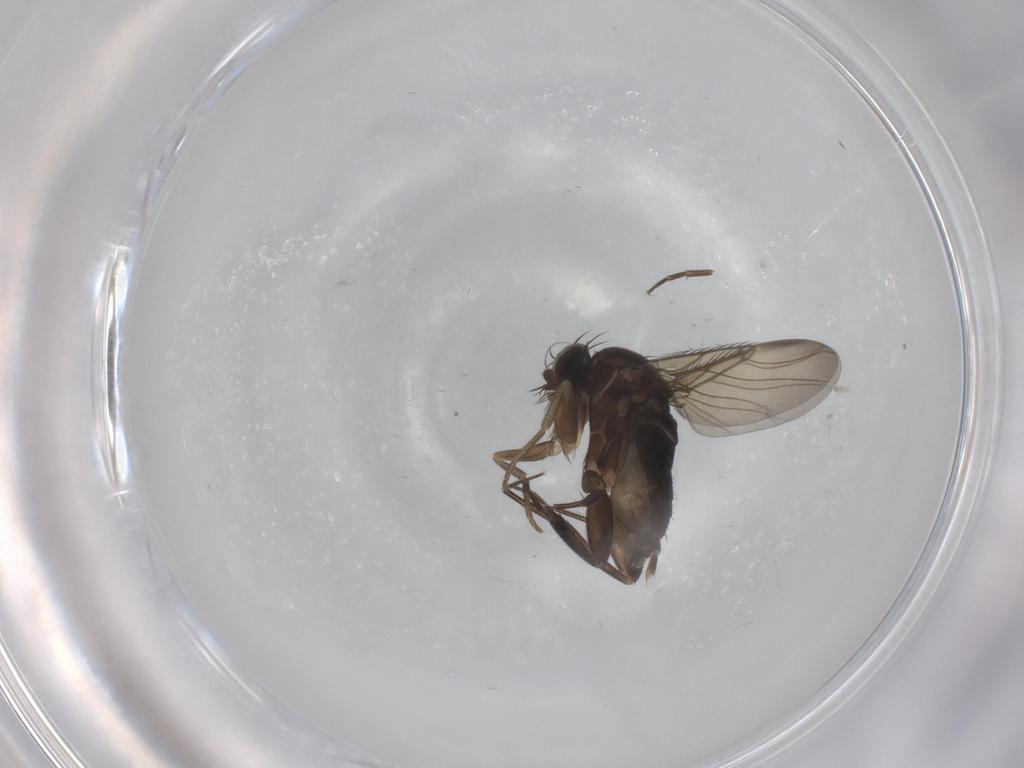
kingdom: Animalia
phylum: Arthropoda
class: Insecta
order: Diptera
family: Phoridae
